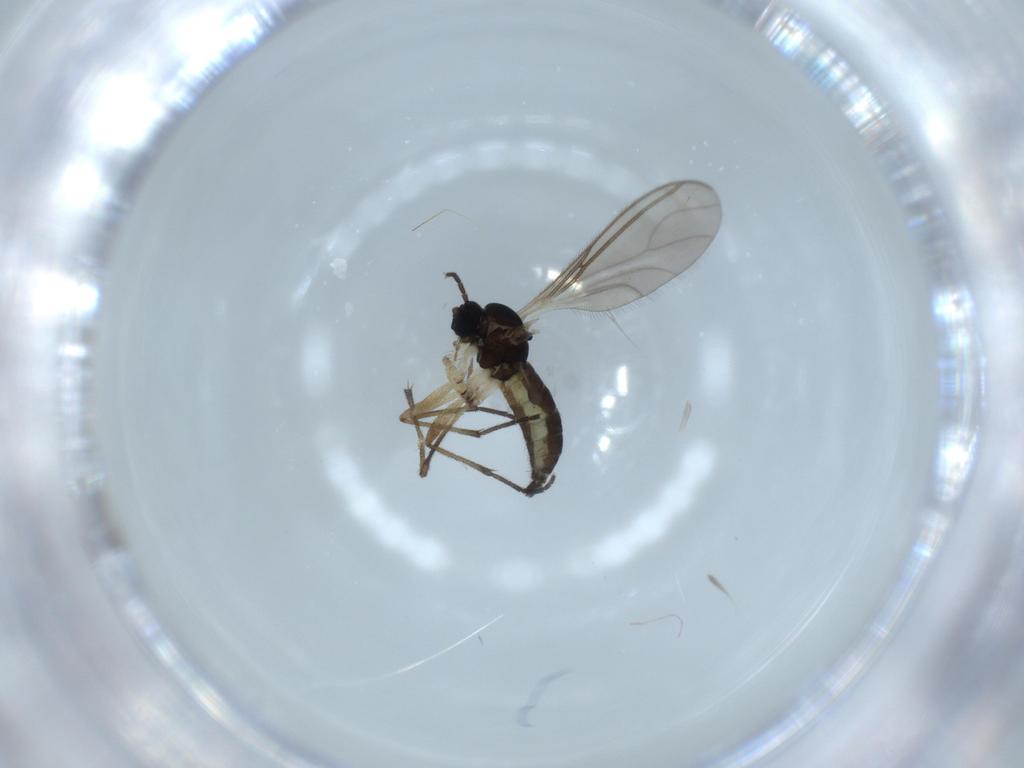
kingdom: Animalia
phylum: Arthropoda
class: Insecta
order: Diptera
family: Sciaridae
